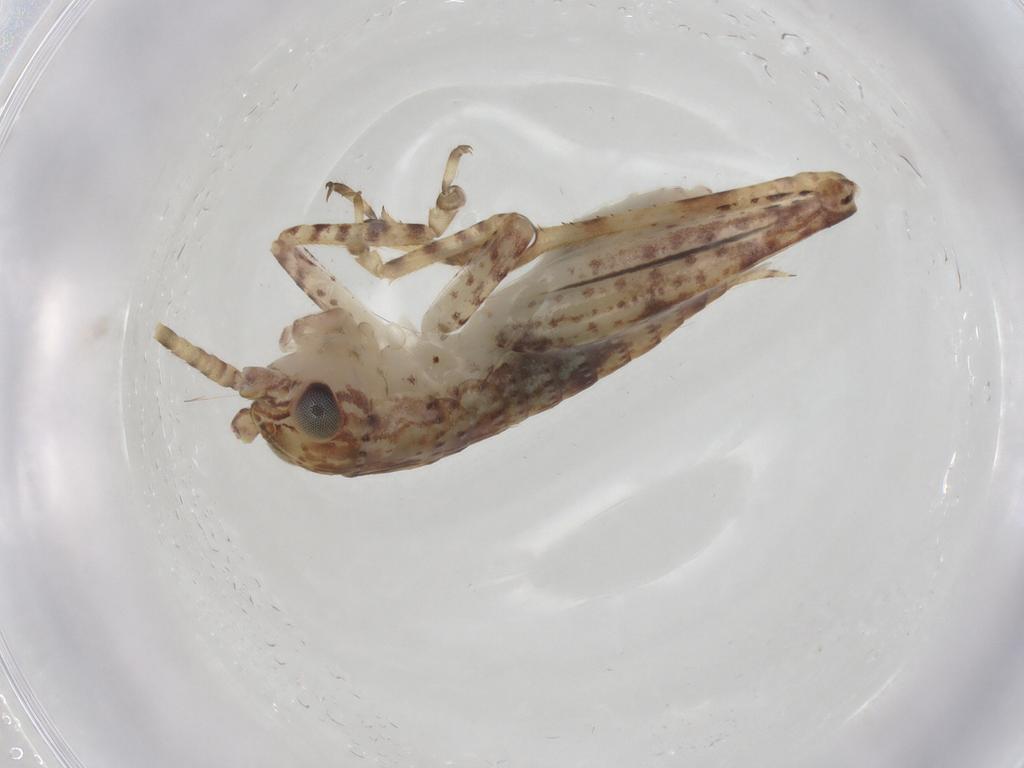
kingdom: Animalia
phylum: Arthropoda
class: Insecta
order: Orthoptera
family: Gryllidae
